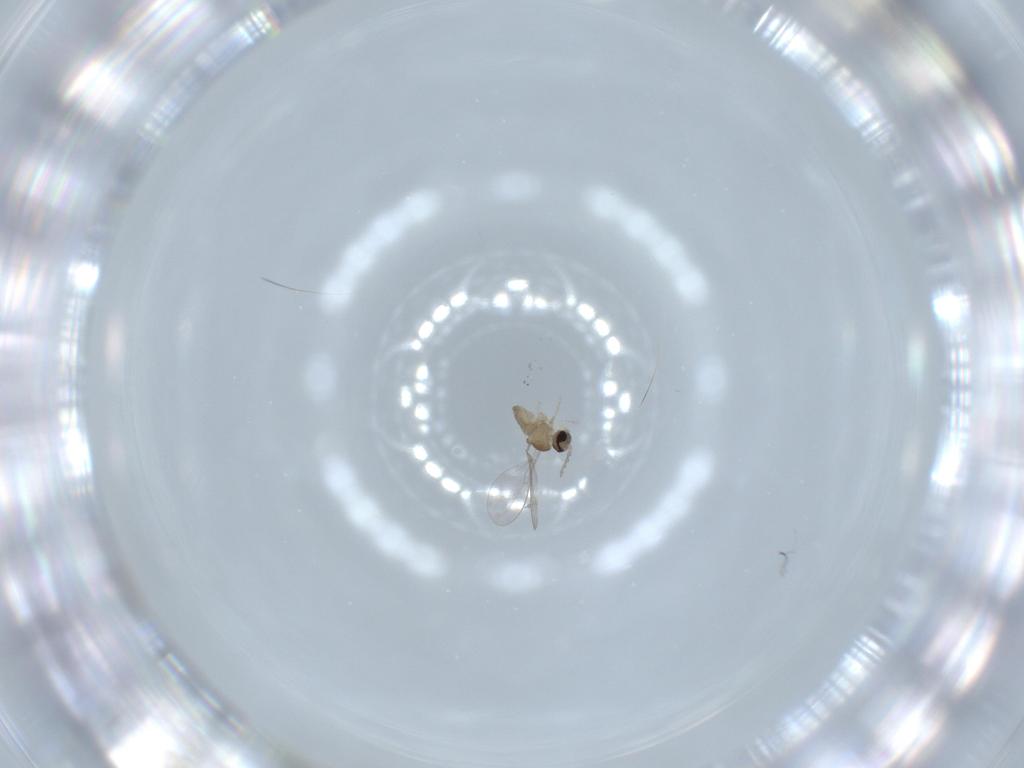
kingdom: Animalia
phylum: Arthropoda
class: Insecta
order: Diptera
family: Cecidomyiidae
